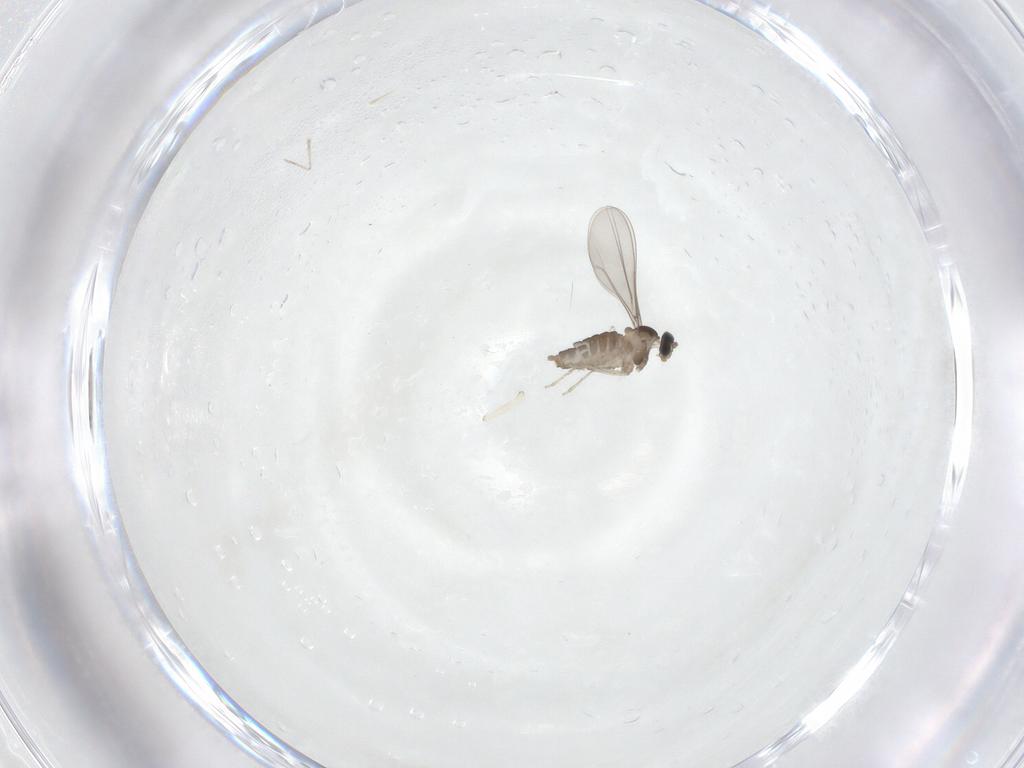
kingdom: Animalia
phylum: Arthropoda
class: Insecta
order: Diptera
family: Cecidomyiidae
